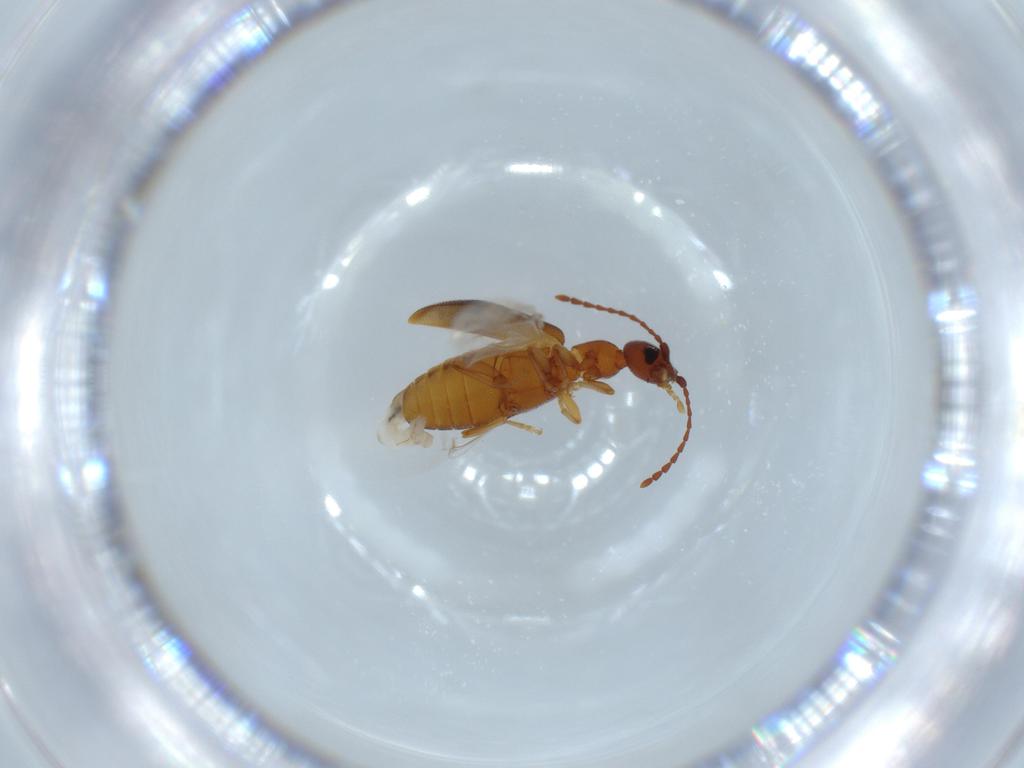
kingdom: Animalia
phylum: Arthropoda
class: Insecta
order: Coleoptera
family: Anthicidae
